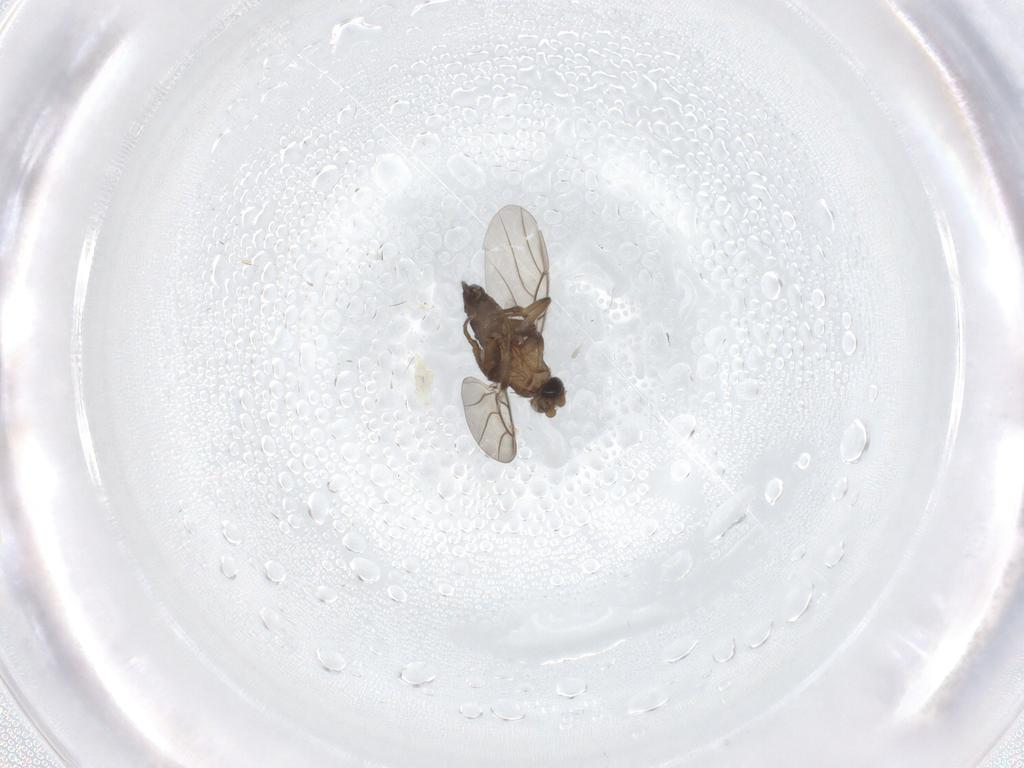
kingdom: Animalia
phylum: Arthropoda
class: Insecta
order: Diptera
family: Phoridae
